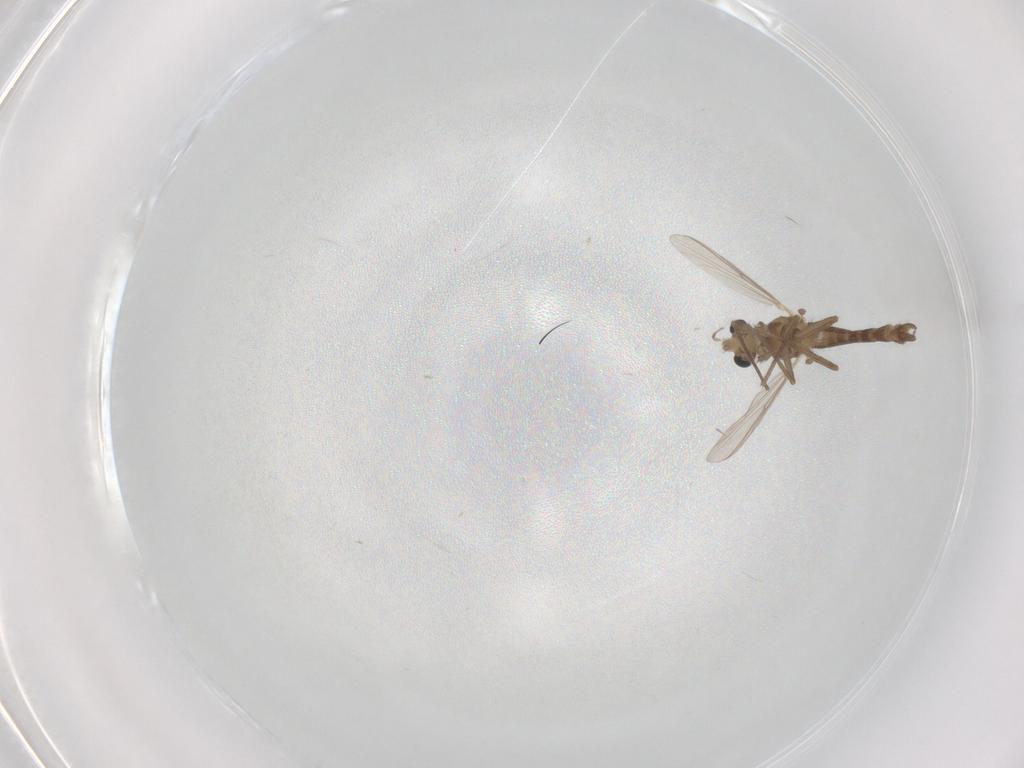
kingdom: Animalia
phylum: Arthropoda
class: Insecta
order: Diptera
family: Chironomidae
